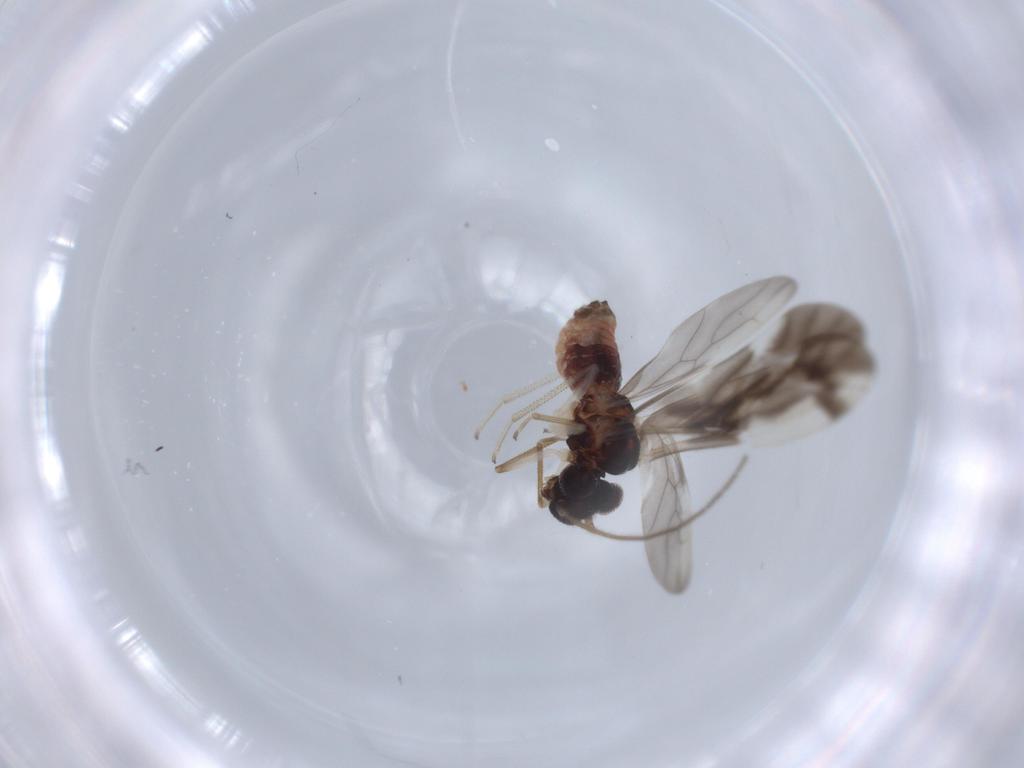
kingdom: Animalia
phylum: Arthropoda
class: Insecta
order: Psocodea
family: Caeciliusidae
